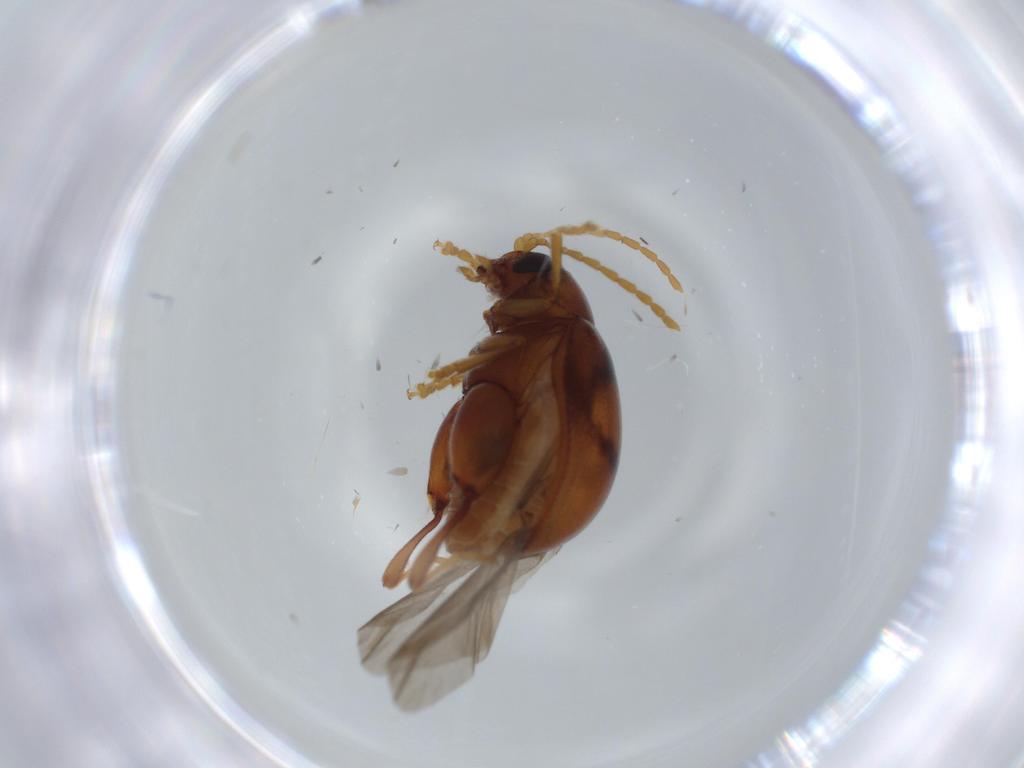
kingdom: Animalia
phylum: Arthropoda
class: Insecta
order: Coleoptera
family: Chrysomelidae
